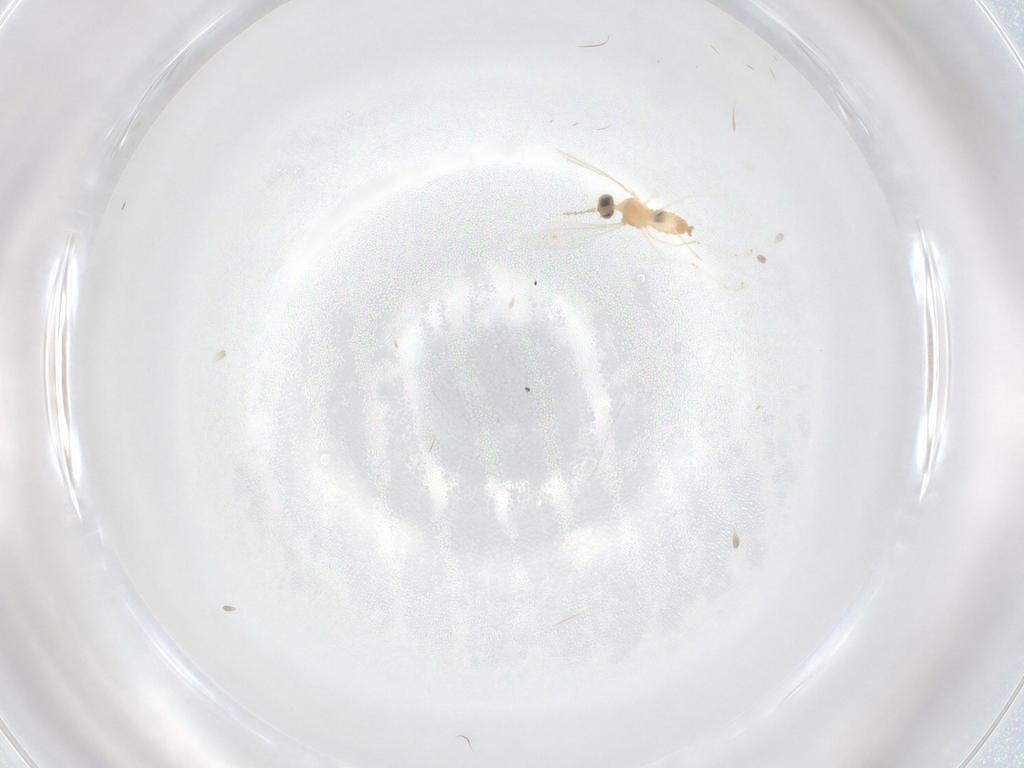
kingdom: Animalia
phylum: Arthropoda
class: Insecta
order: Diptera
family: Cecidomyiidae
